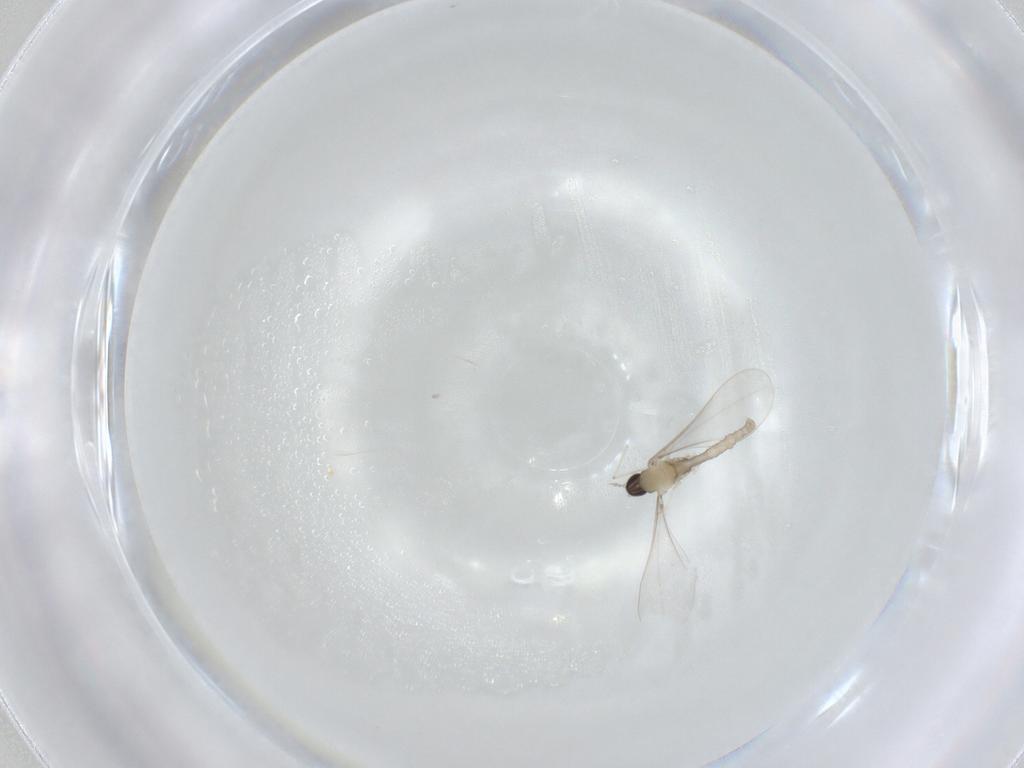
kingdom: Animalia
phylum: Arthropoda
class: Insecta
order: Diptera
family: Cecidomyiidae
